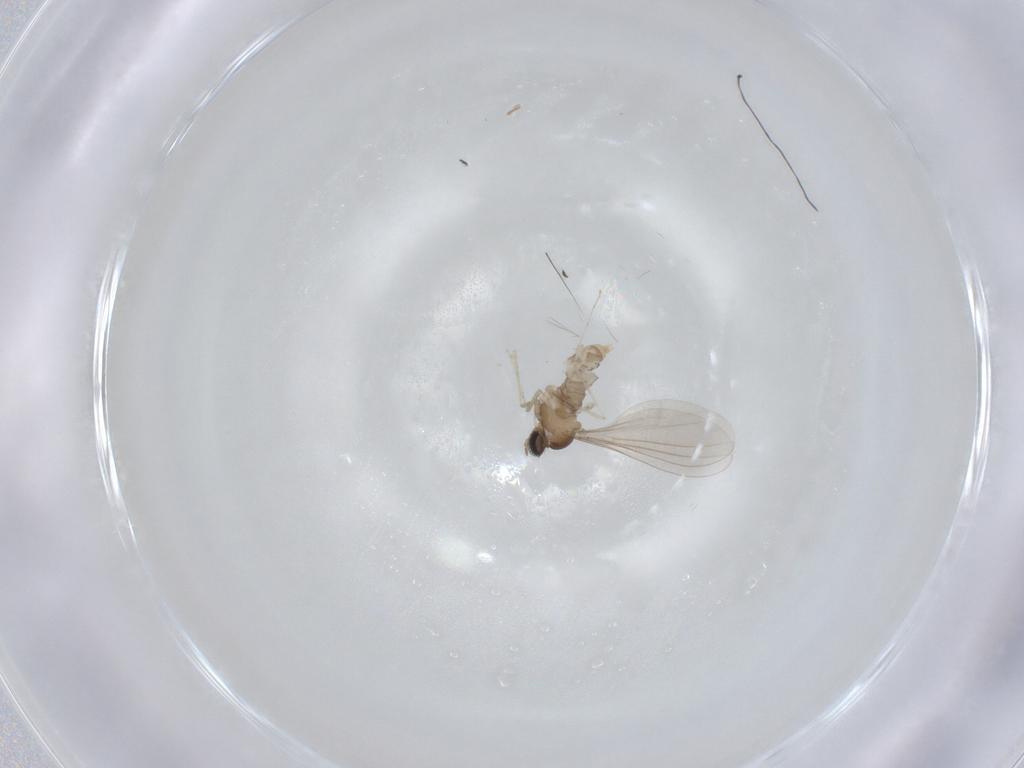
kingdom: Animalia
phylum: Arthropoda
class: Insecta
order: Diptera
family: Cecidomyiidae
